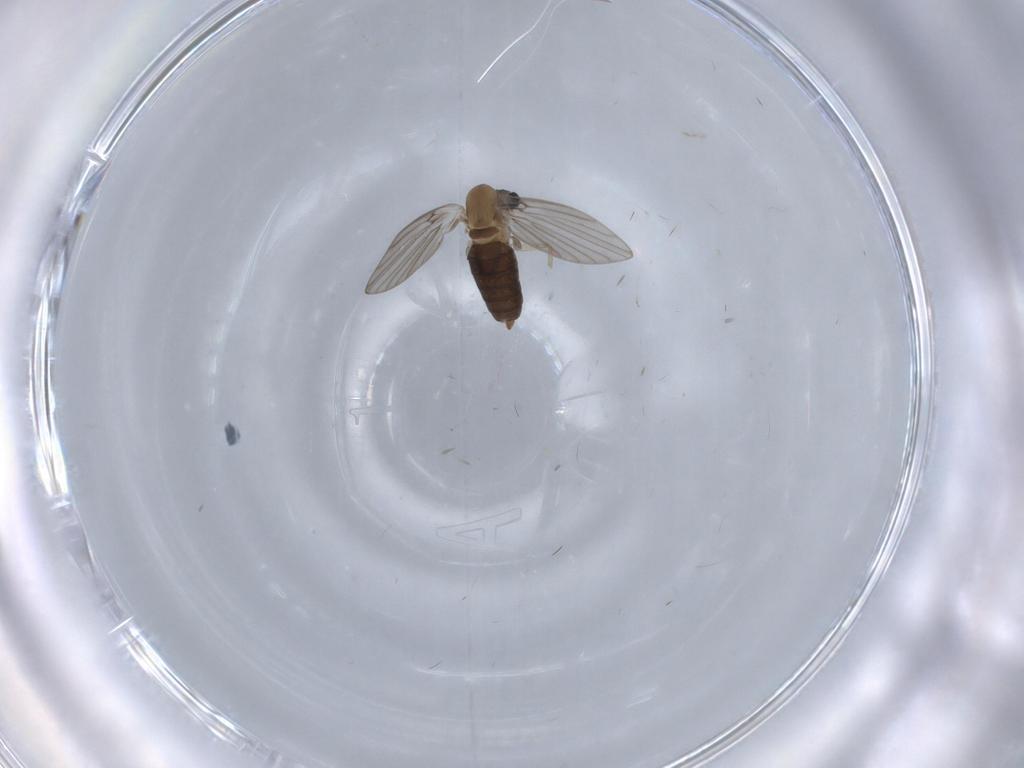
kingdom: Animalia
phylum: Arthropoda
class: Insecta
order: Diptera
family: Psychodidae
